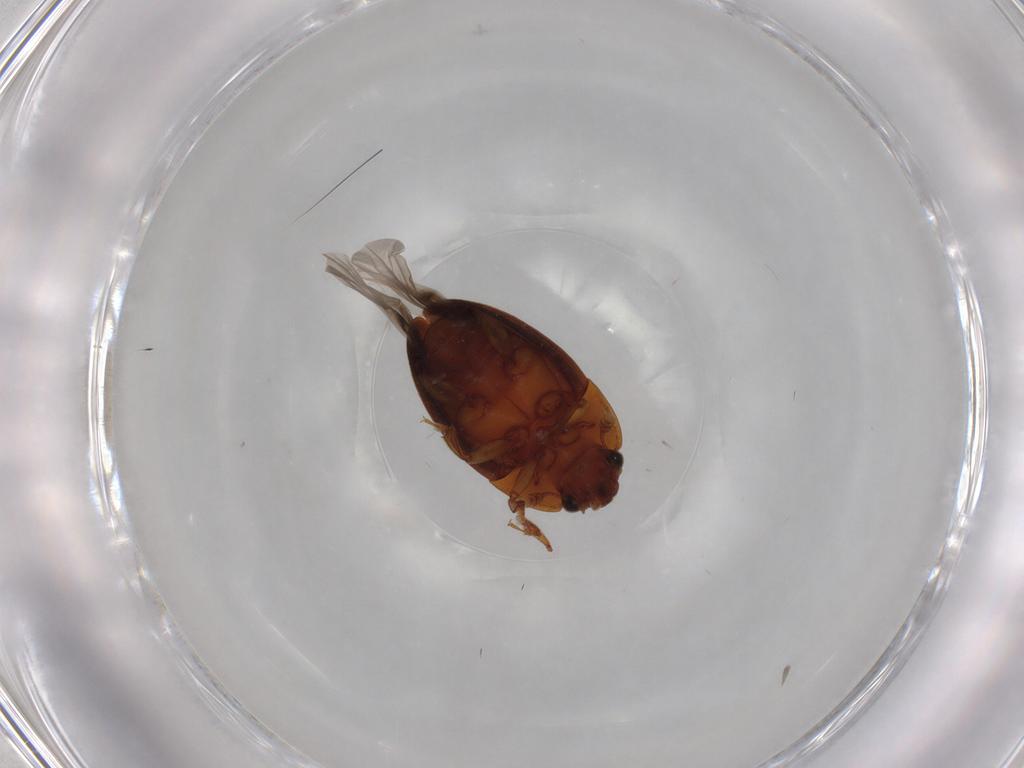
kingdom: Animalia
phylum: Arthropoda
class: Insecta
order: Coleoptera
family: Nitidulidae
